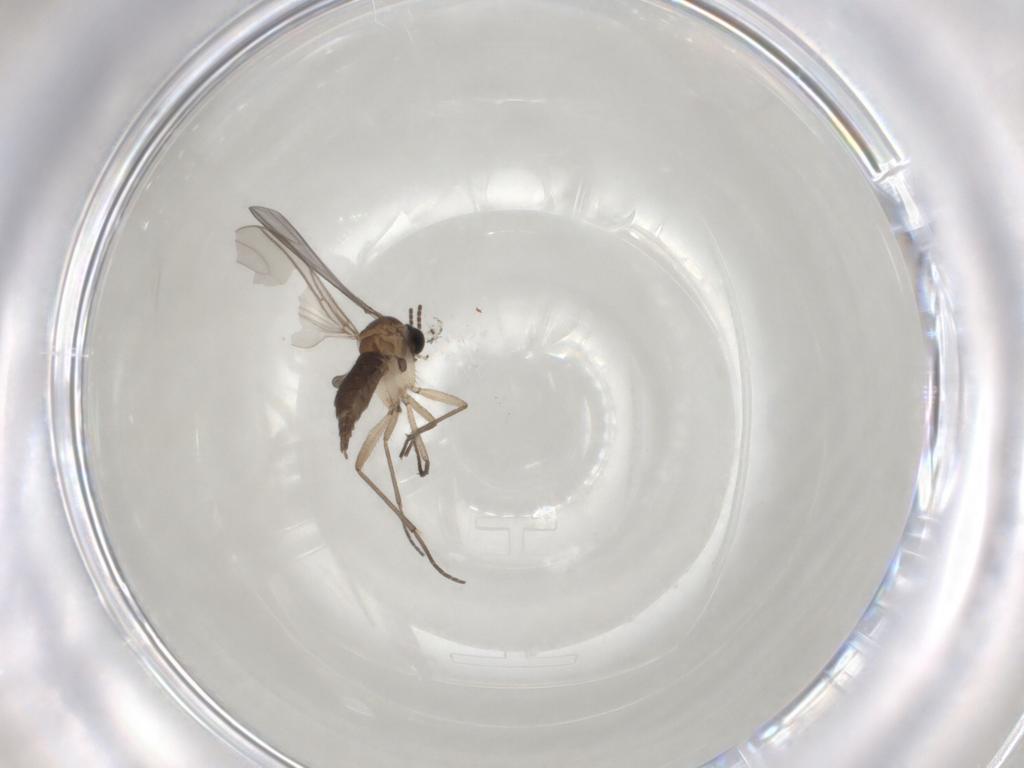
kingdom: Animalia
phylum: Arthropoda
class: Insecta
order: Diptera
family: Sciaridae
